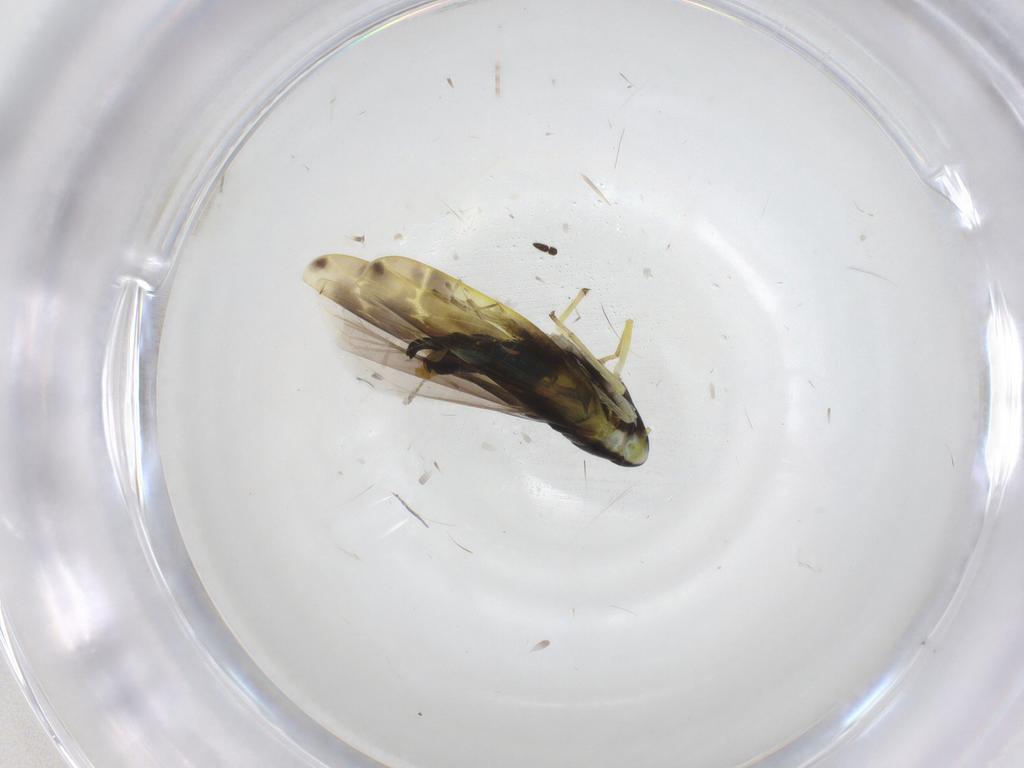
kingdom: Animalia
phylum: Arthropoda
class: Insecta
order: Hemiptera
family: Cicadellidae
